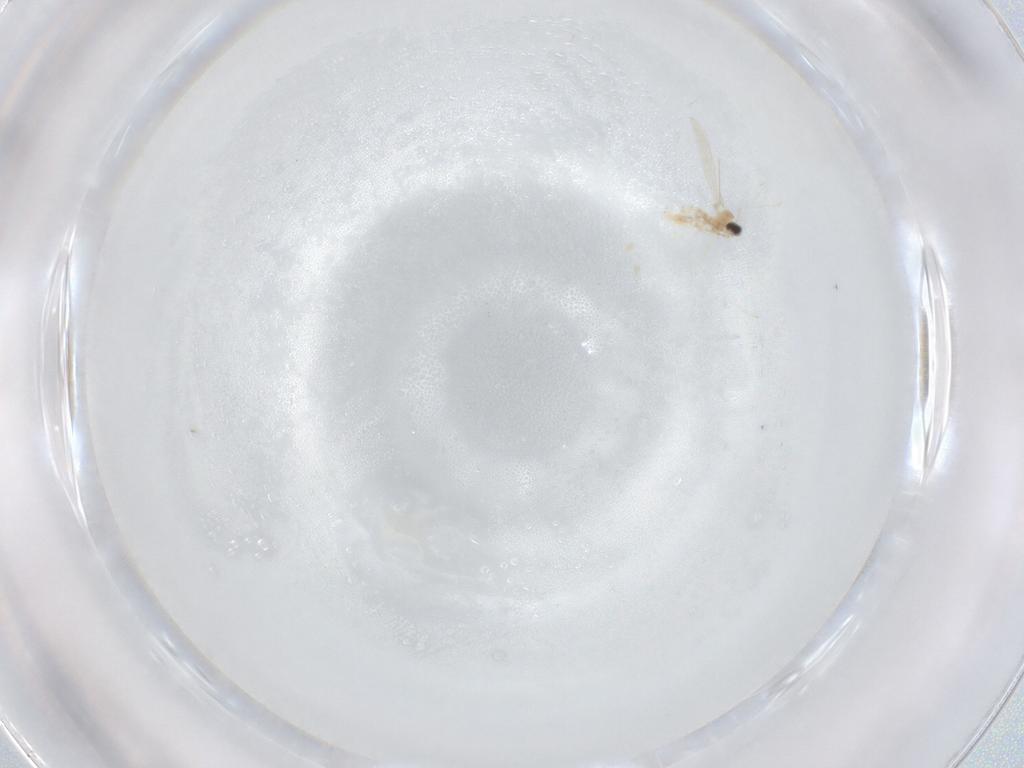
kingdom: Animalia
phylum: Arthropoda
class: Insecta
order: Diptera
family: Cecidomyiidae
